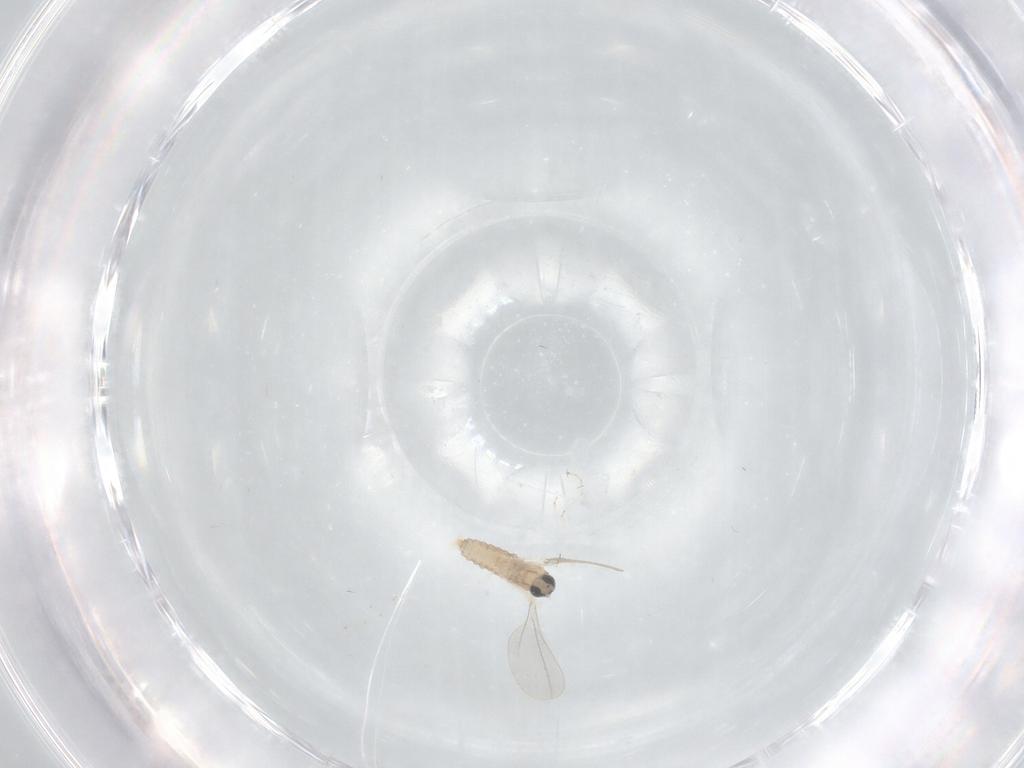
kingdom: Animalia
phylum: Arthropoda
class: Insecta
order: Diptera
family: Cecidomyiidae
